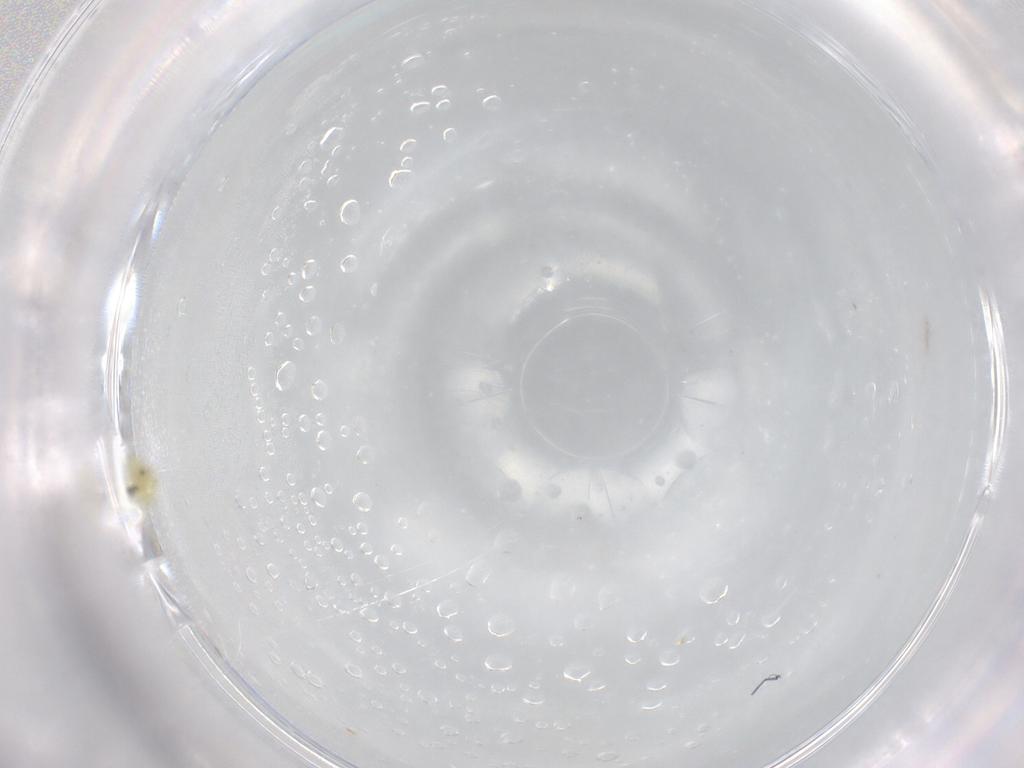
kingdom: Animalia
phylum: Arthropoda
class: Insecta
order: Hemiptera
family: Aleyrodidae
